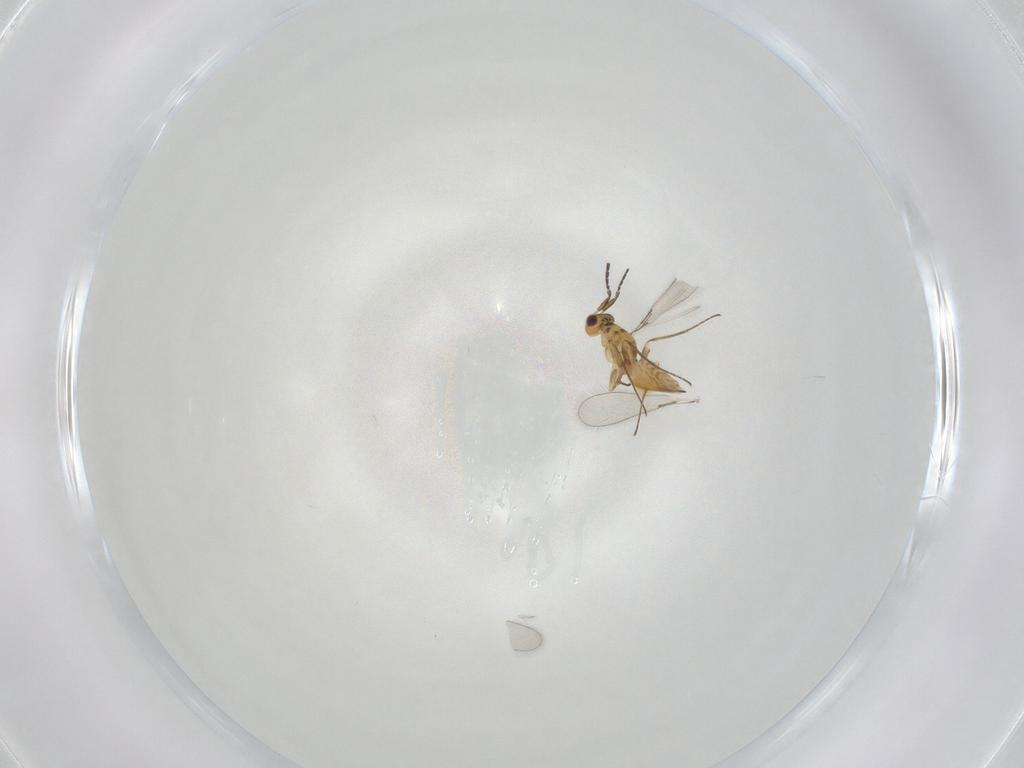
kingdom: Animalia
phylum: Arthropoda
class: Insecta
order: Hymenoptera
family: Mymaridae
